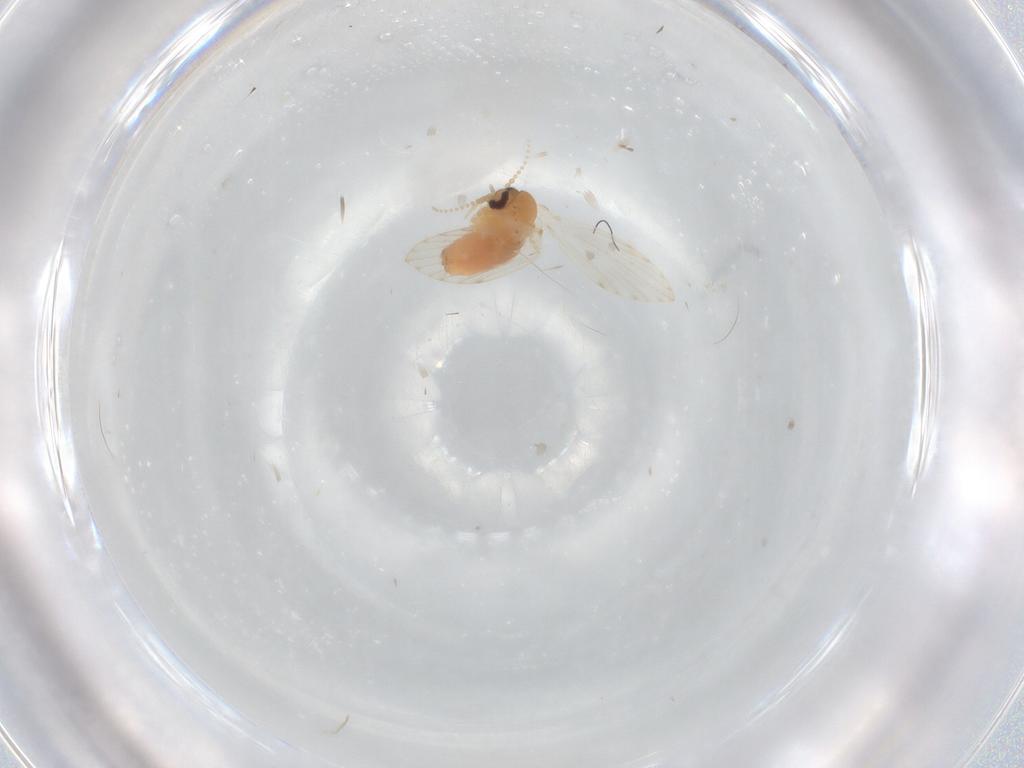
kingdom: Animalia
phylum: Arthropoda
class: Insecta
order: Diptera
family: Psychodidae
